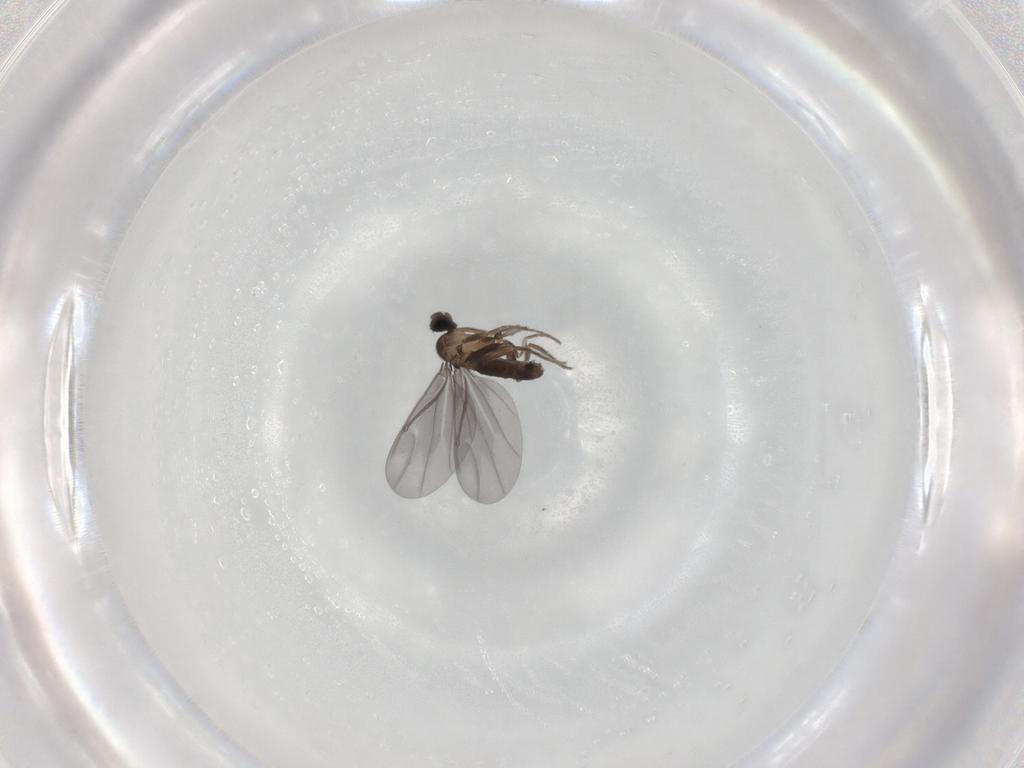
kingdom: Animalia
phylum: Arthropoda
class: Insecta
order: Diptera
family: Phoridae
